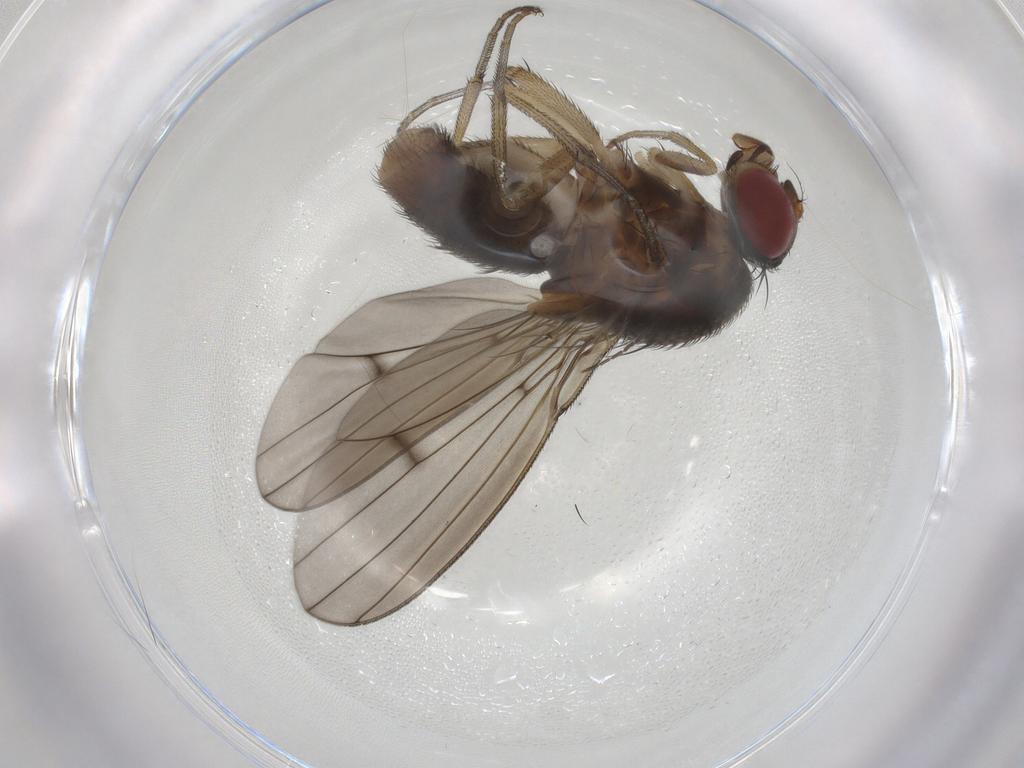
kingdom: Animalia
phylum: Arthropoda
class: Insecta
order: Diptera
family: Curtonotidae
